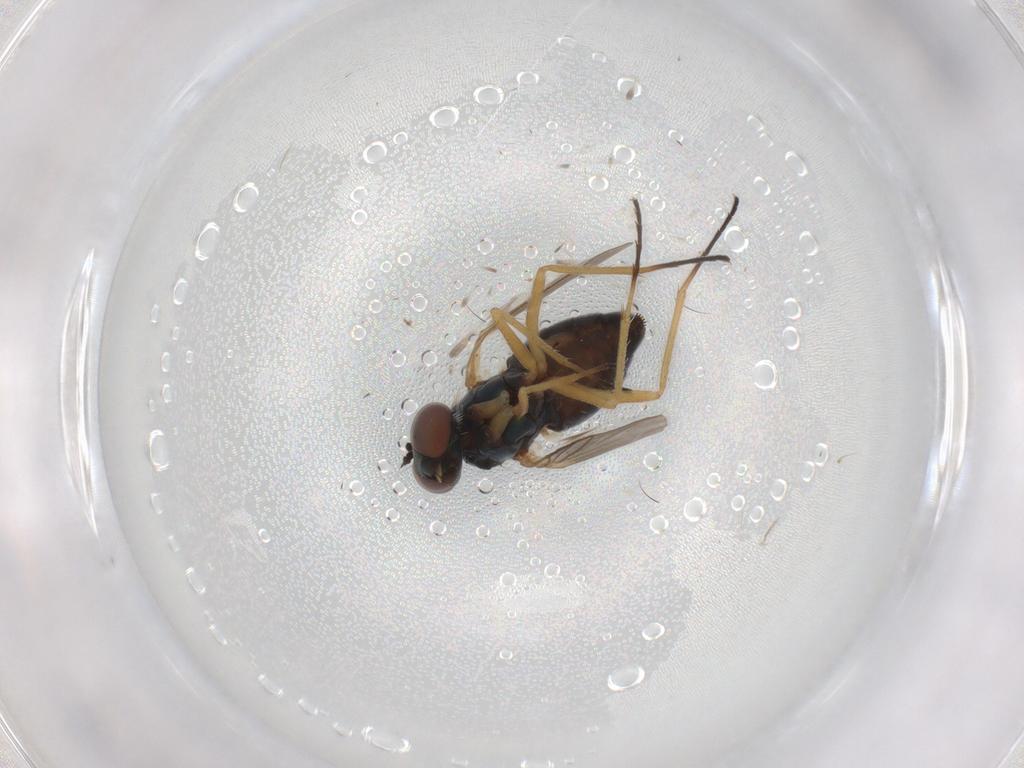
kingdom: Animalia
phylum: Arthropoda
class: Insecta
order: Diptera
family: Dolichopodidae
